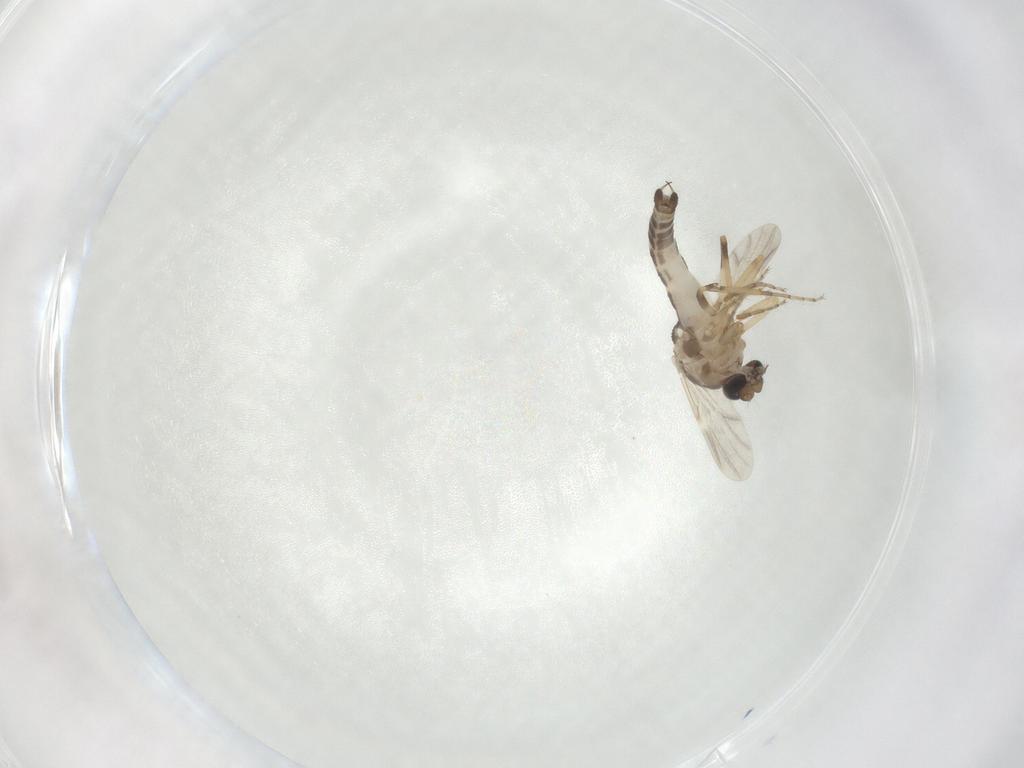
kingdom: Animalia
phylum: Arthropoda
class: Insecta
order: Diptera
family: Ceratopogonidae
